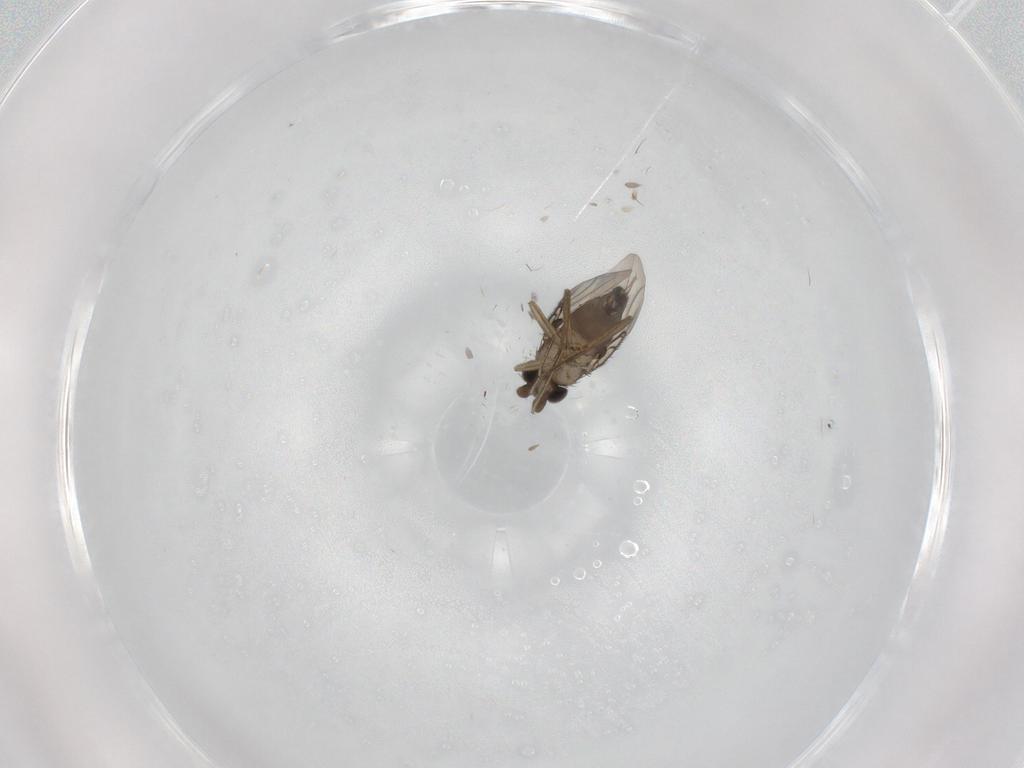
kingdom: Animalia
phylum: Arthropoda
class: Insecta
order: Diptera
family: Phoridae
